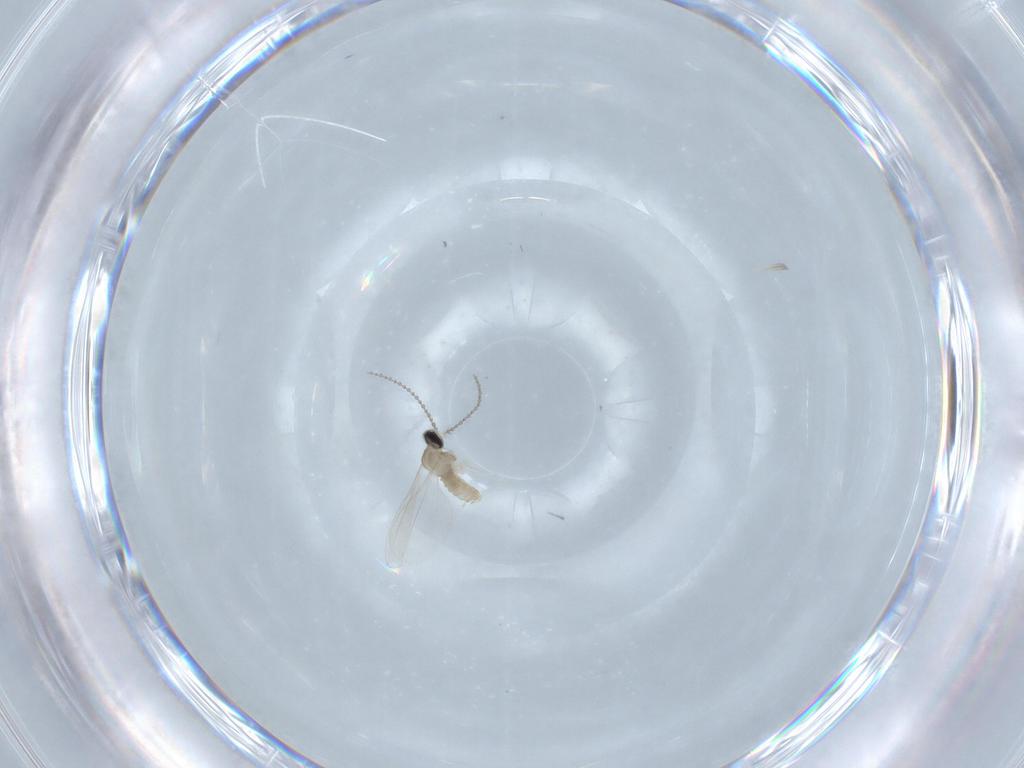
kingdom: Animalia
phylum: Arthropoda
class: Insecta
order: Diptera
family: Cecidomyiidae
